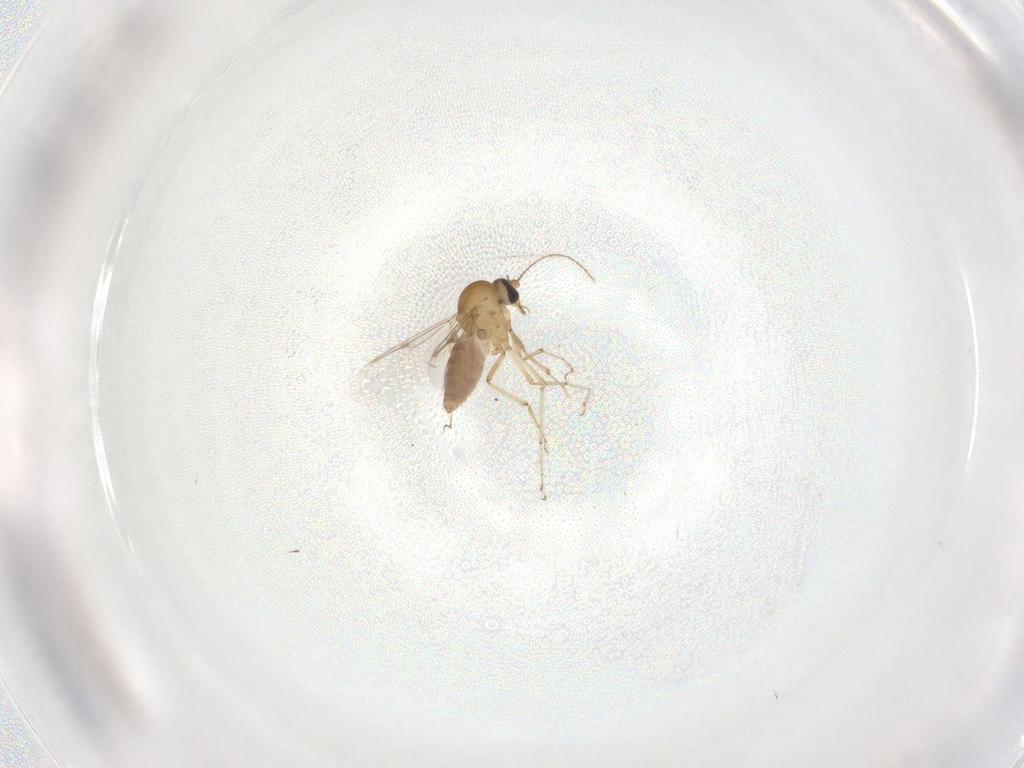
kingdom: Animalia
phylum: Arthropoda
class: Insecta
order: Diptera
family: Ceratopogonidae
